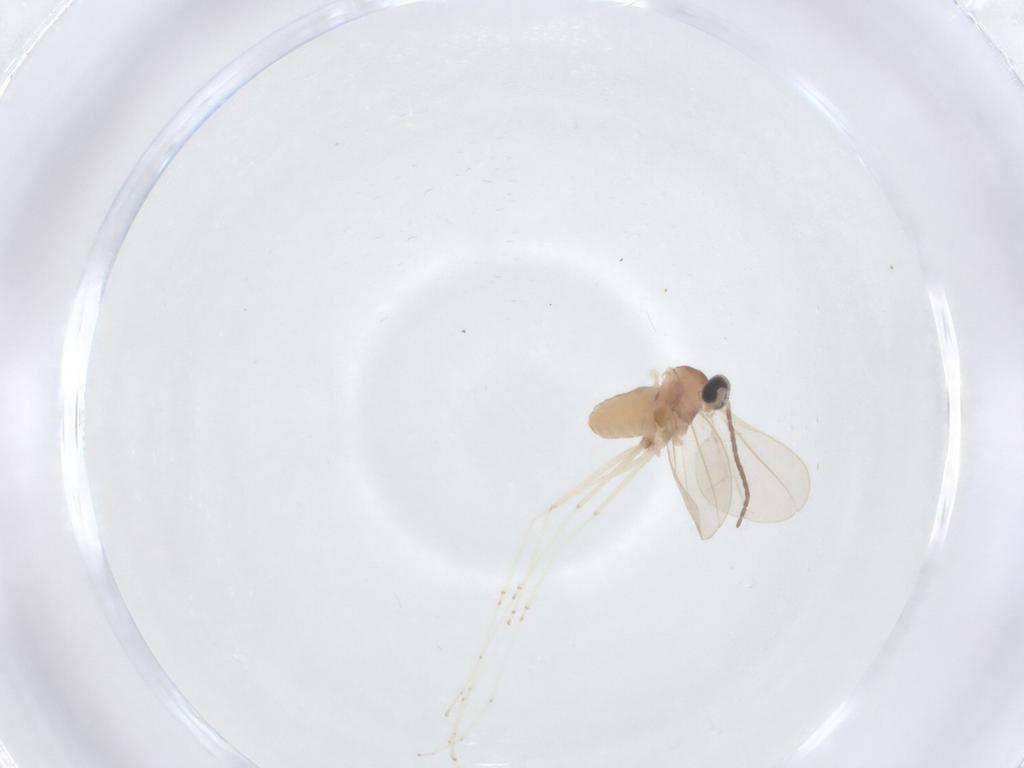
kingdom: Animalia
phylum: Arthropoda
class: Insecta
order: Diptera
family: Cecidomyiidae
